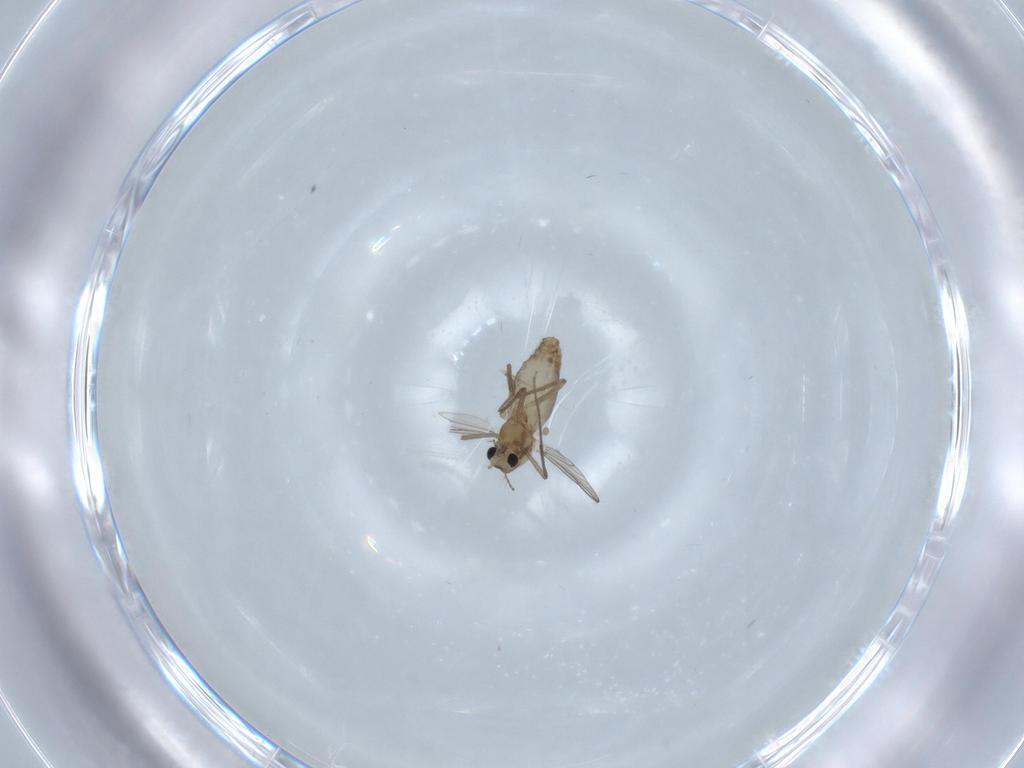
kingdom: Animalia
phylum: Arthropoda
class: Insecta
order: Diptera
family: Chironomidae
